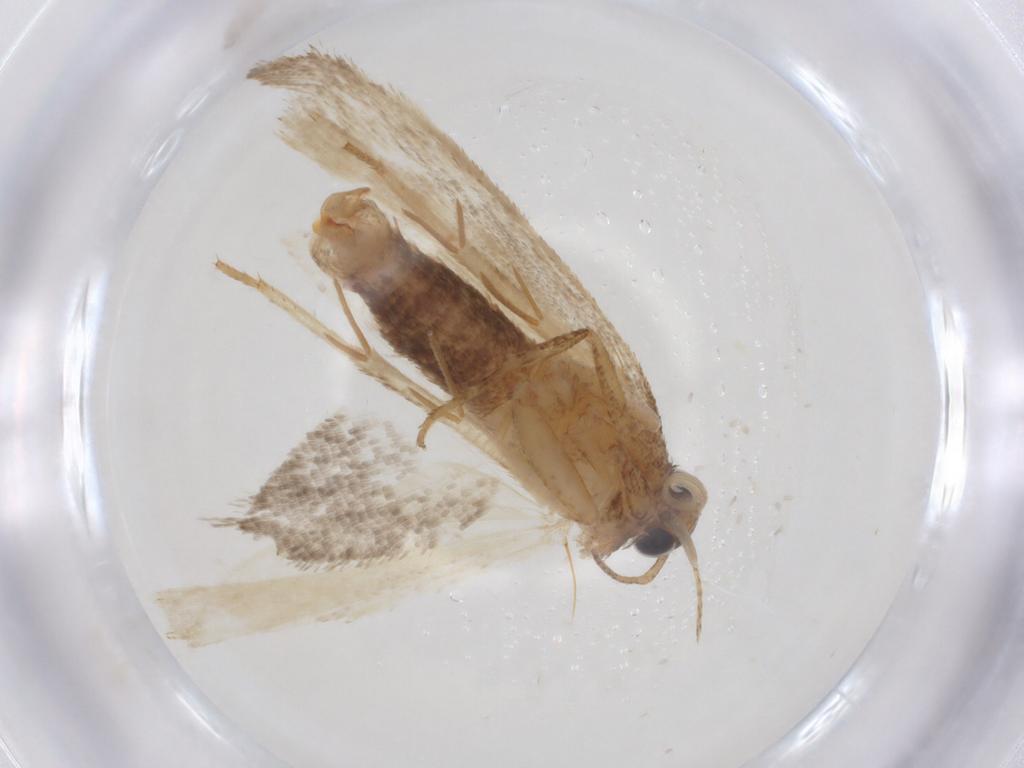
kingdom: Animalia
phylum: Arthropoda
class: Insecta
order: Lepidoptera
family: Gelechiidae
